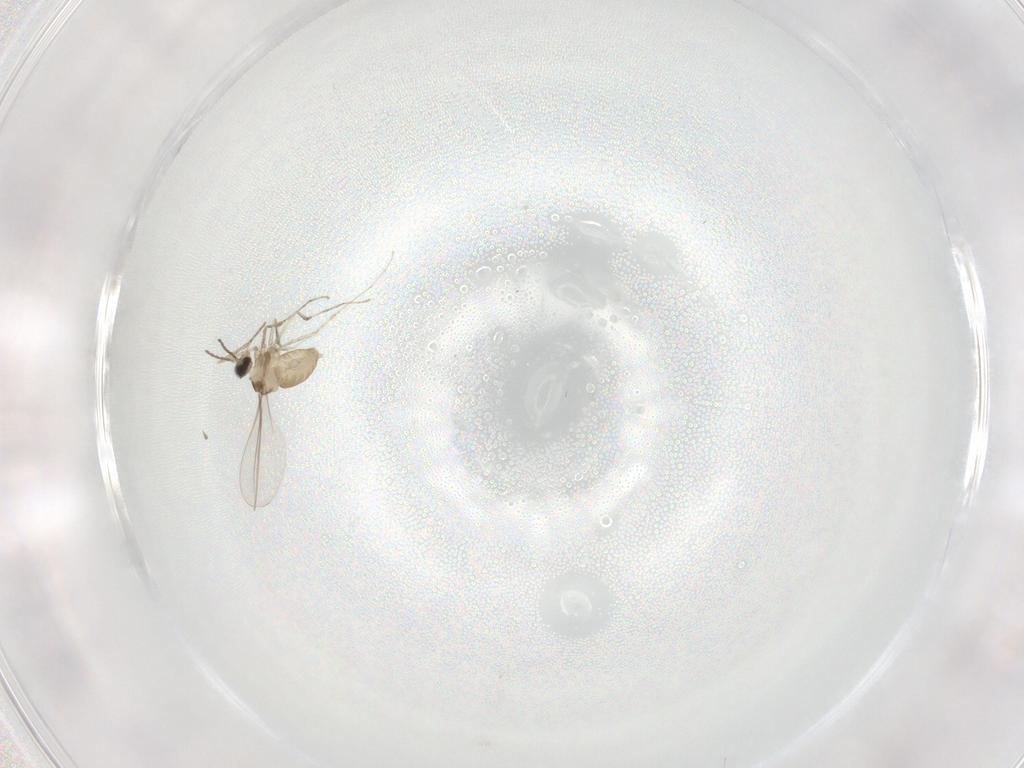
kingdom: Animalia
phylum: Arthropoda
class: Insecta
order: Diptera
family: Cecidomyiidae
